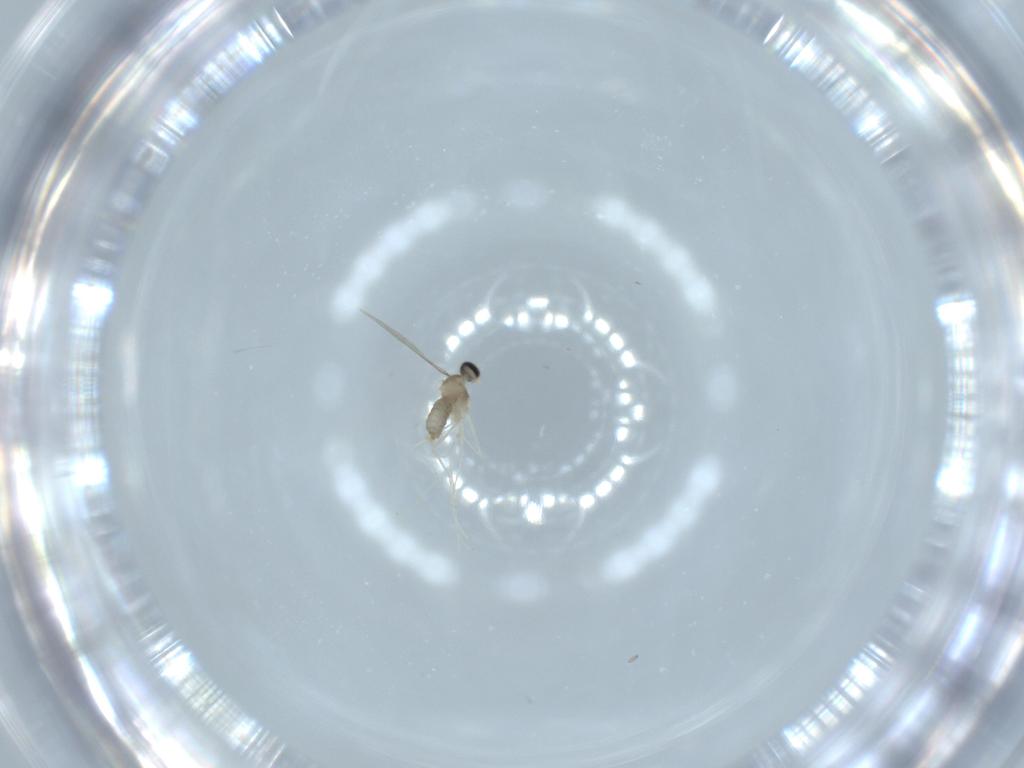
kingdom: Animalia
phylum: Arthropoda
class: Insecta
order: Diptera
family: Cecidomyiidae
